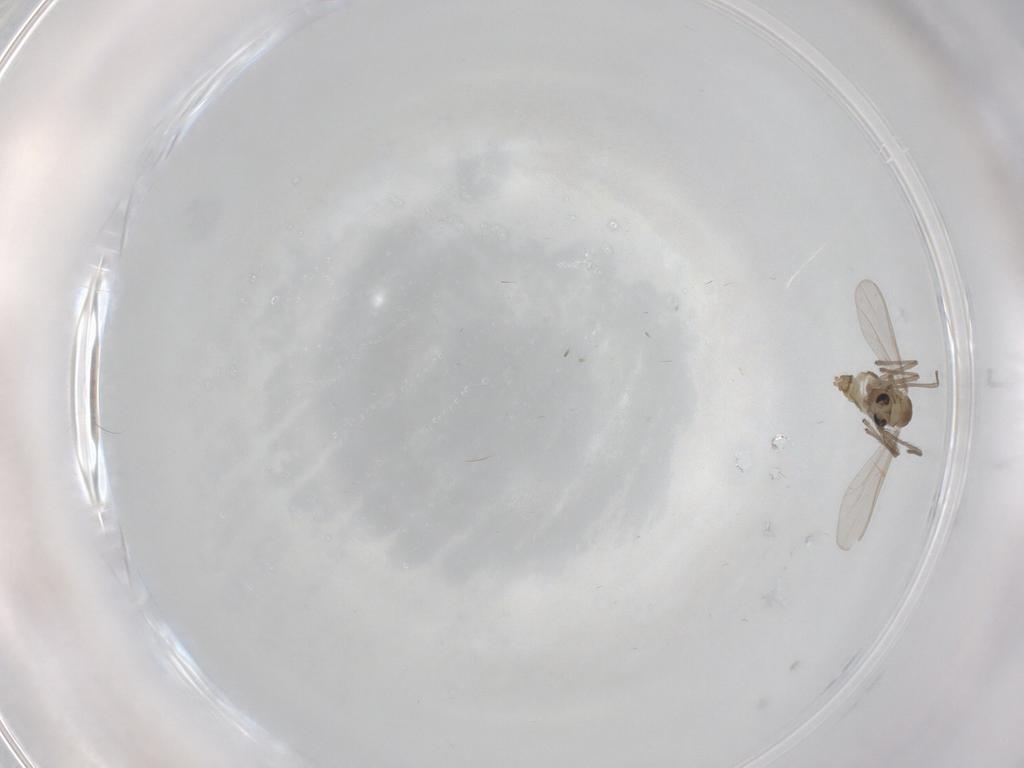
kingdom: Animalia
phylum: Arthropoda
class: Insecta
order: Diptera
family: Chironomidae
